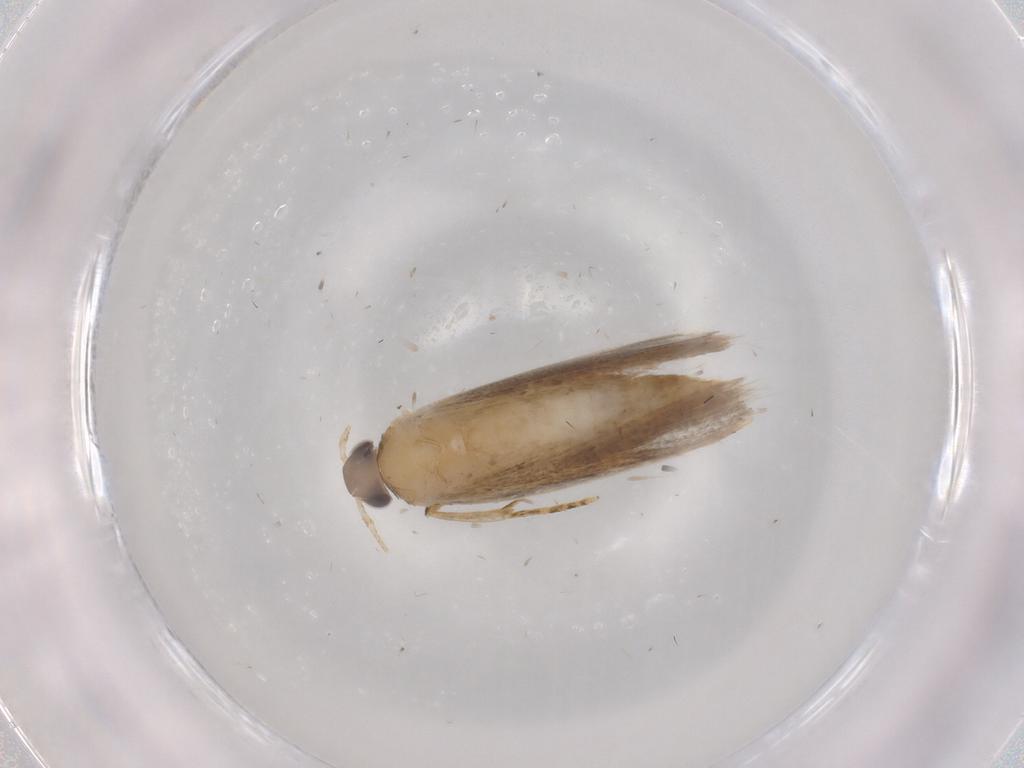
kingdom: Animalia
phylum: Arthropoda
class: Insecta
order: Lepidoptera
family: Autostichidae
